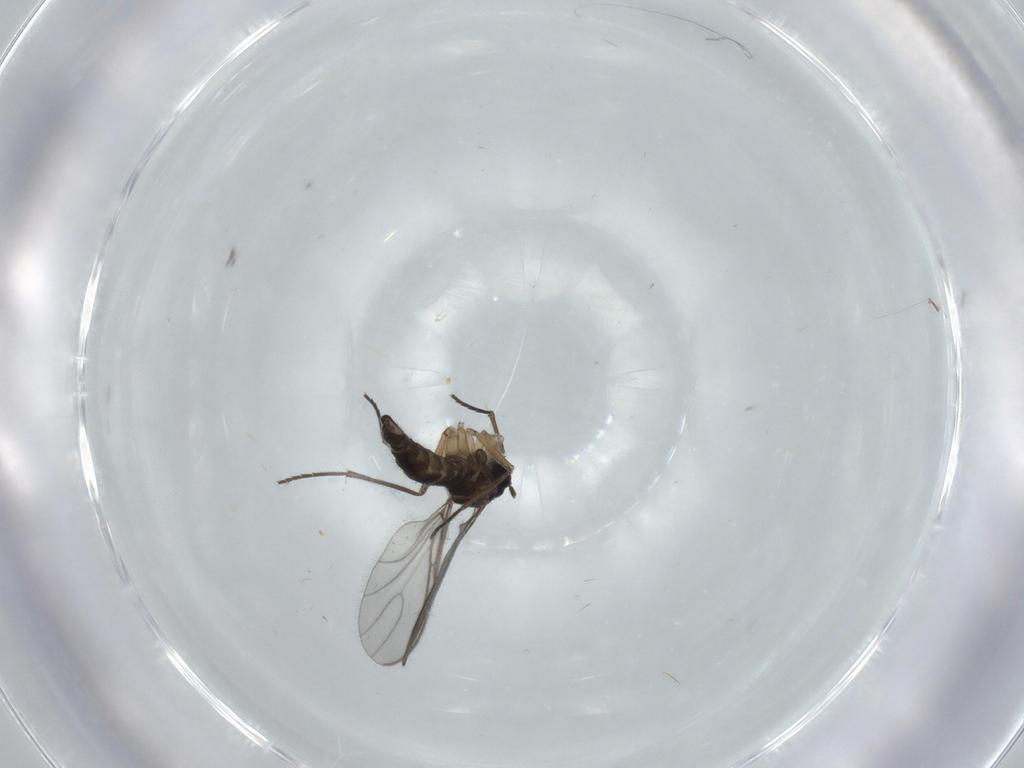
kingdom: Animalia
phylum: Arthropoda
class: Insecta
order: Diptera
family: Sciaridae
